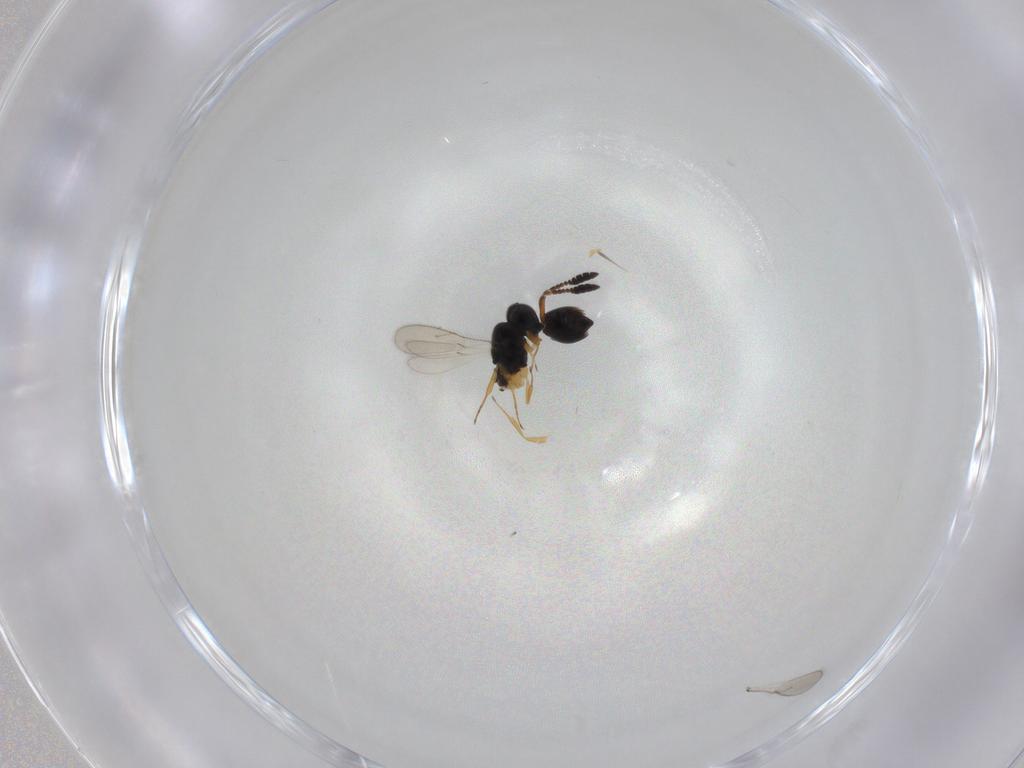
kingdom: Animalia
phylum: Arthropoda
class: Insecta
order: Hymenoptera
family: Scelionidae
